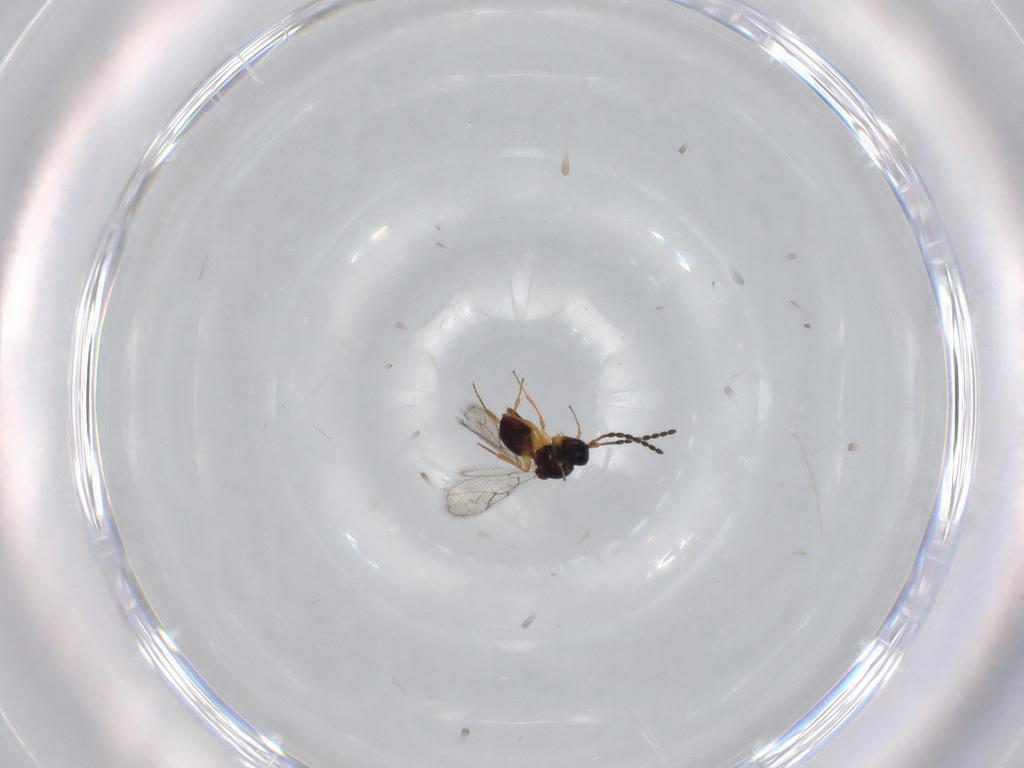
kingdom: Animalia
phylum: Arthropoda
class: Insecta
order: Hymenoptera
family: Figitidae
